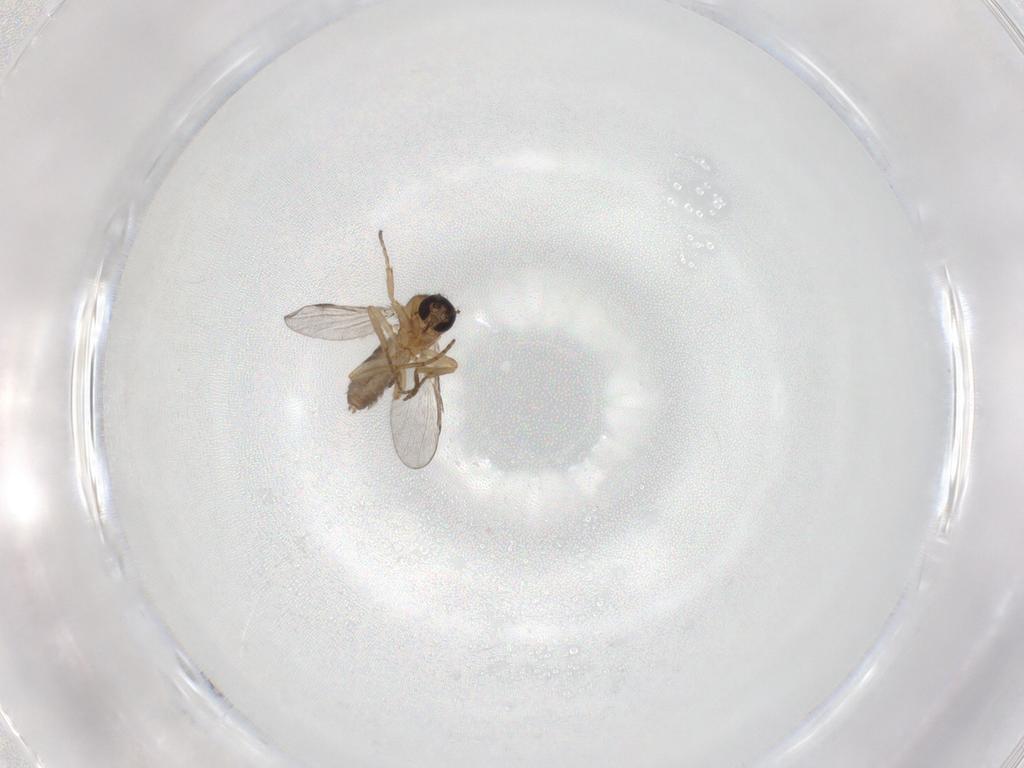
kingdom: Animalia
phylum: Arthropoda
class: Insecta
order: Diptera
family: Ceratopogonidae
